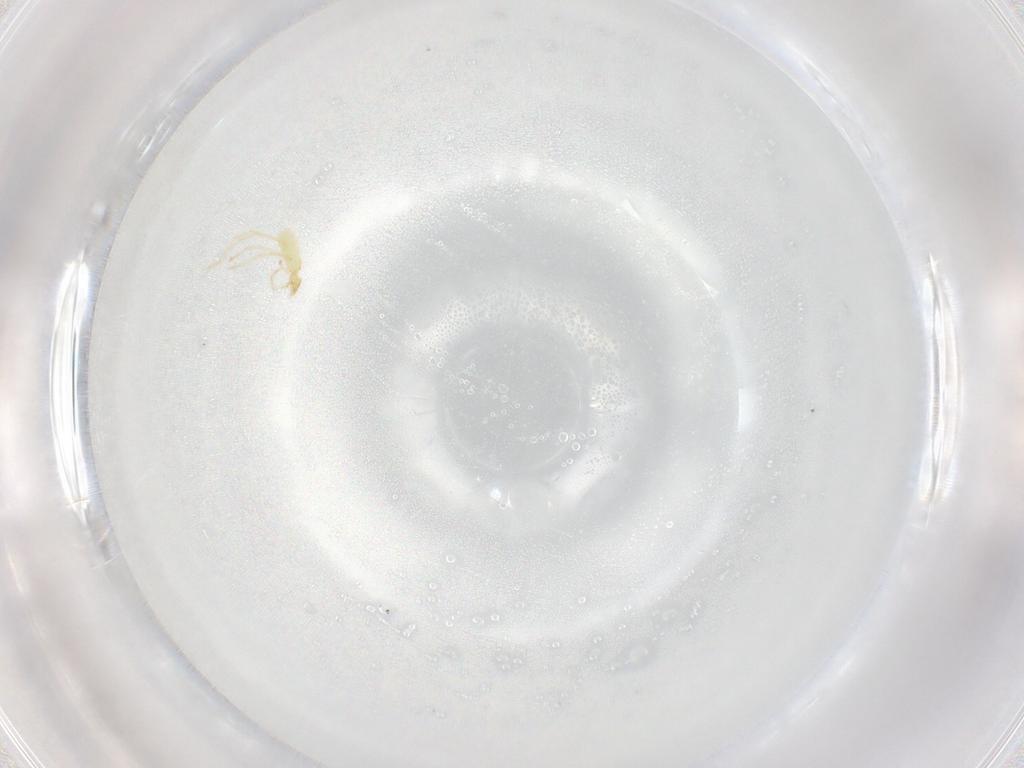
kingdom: Animalia
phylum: Arthropoda
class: Arachnida
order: Trombidiformes
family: Erythraeidae
